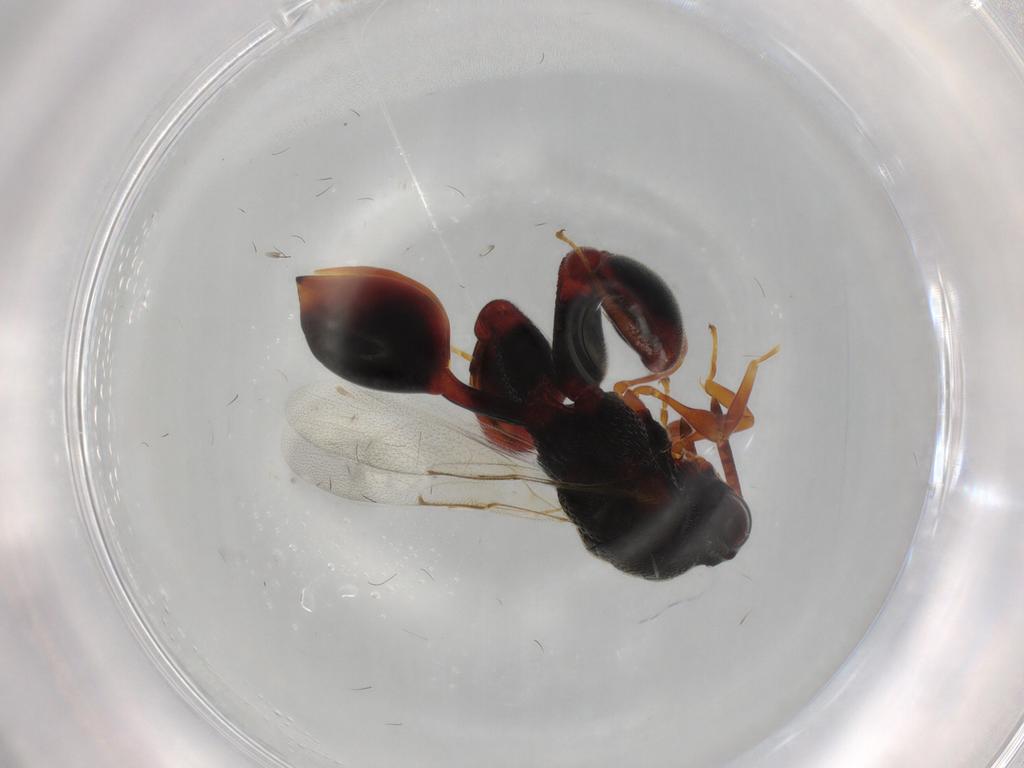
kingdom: Animalia
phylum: Arthropoda
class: Insecta
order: Hymenoptera
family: Chalcididae
